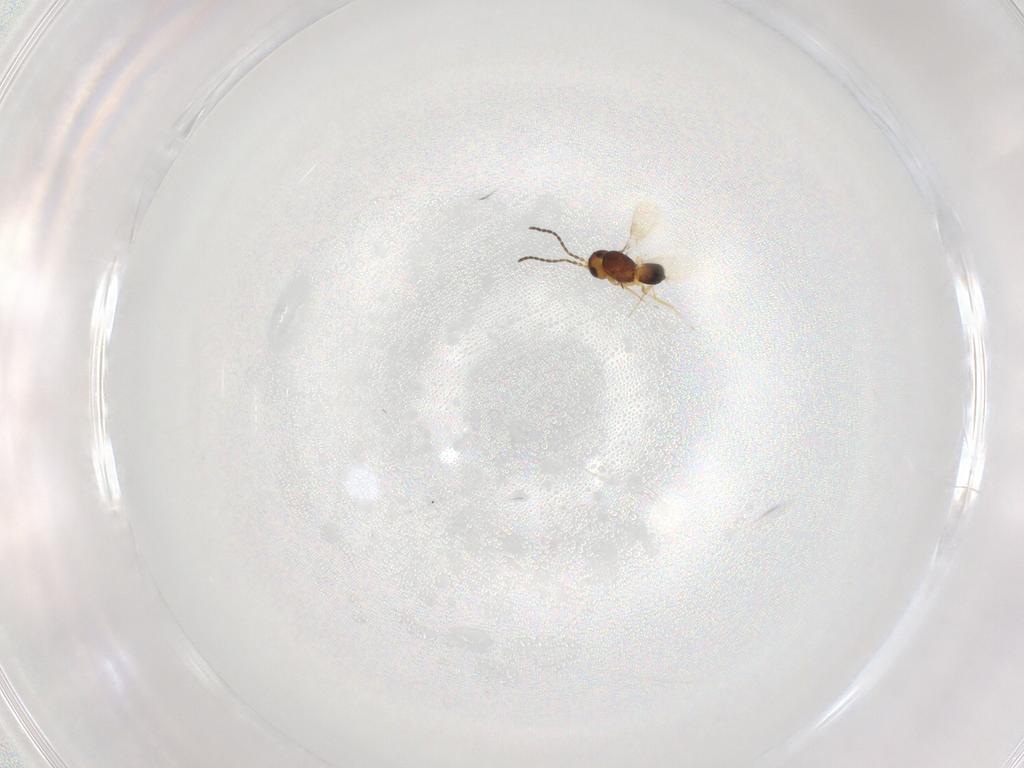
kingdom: Animalia
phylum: Arthropoda
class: Insecta
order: Hymenoptera
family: Scelionidae
